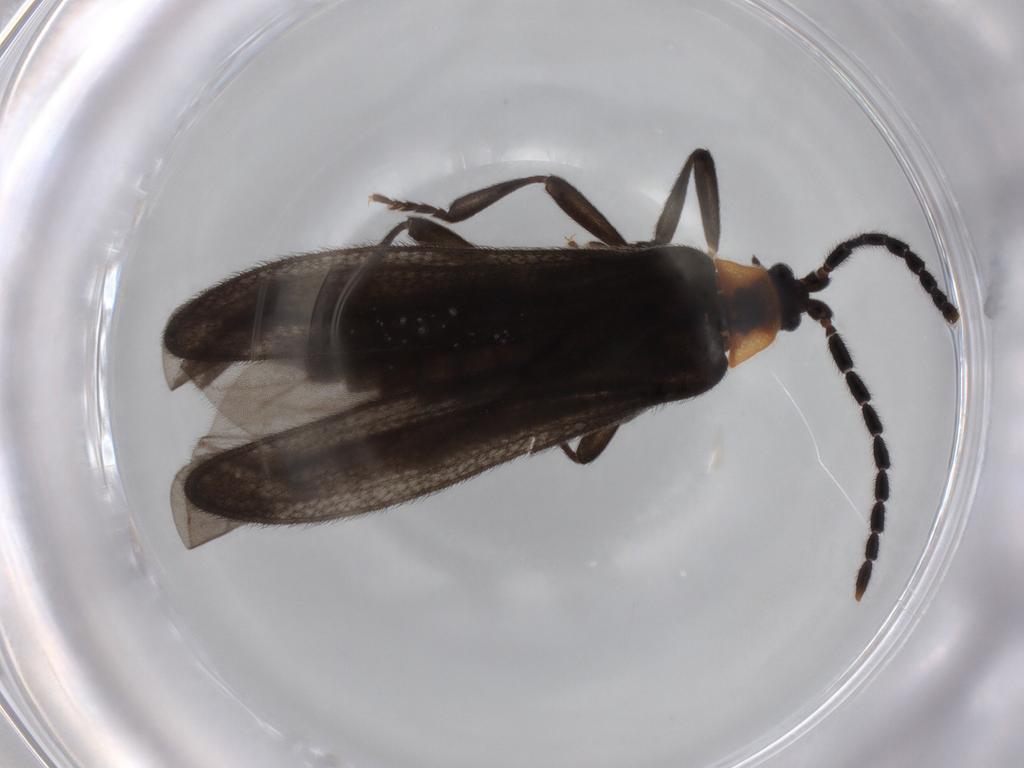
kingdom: Animalia
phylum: Arthropoda
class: Insecta
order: Coleoptera
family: Lycidae
